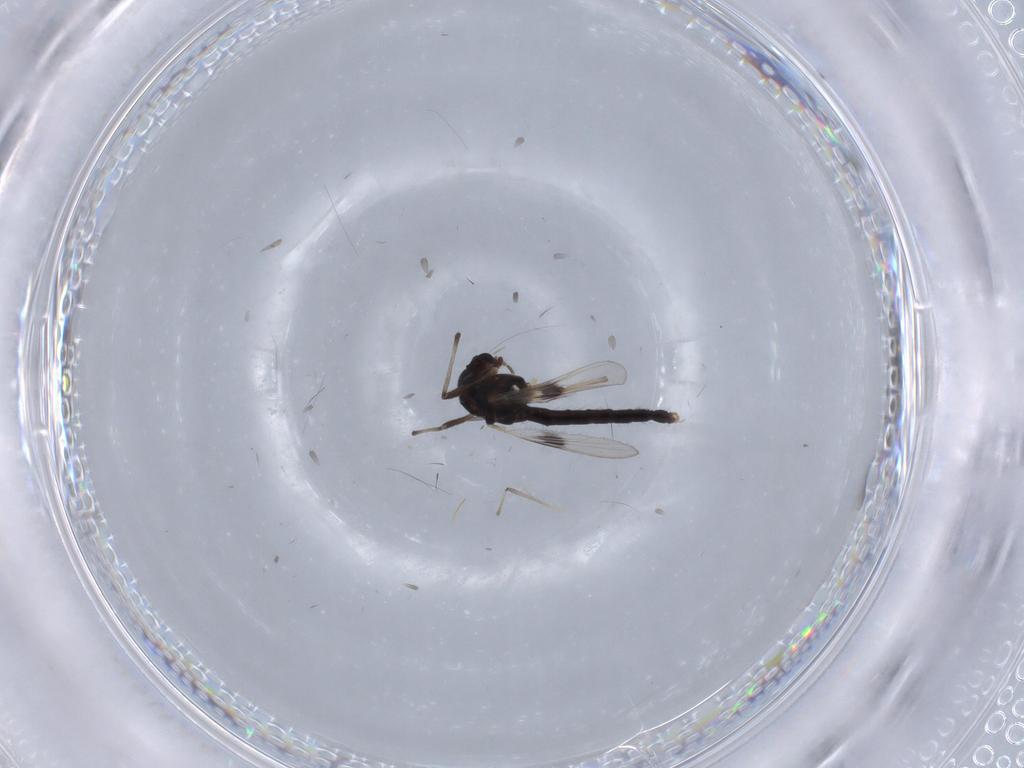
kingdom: Animalia
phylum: Arthropoda
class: Insecta
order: Diptera
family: Chironomidae
